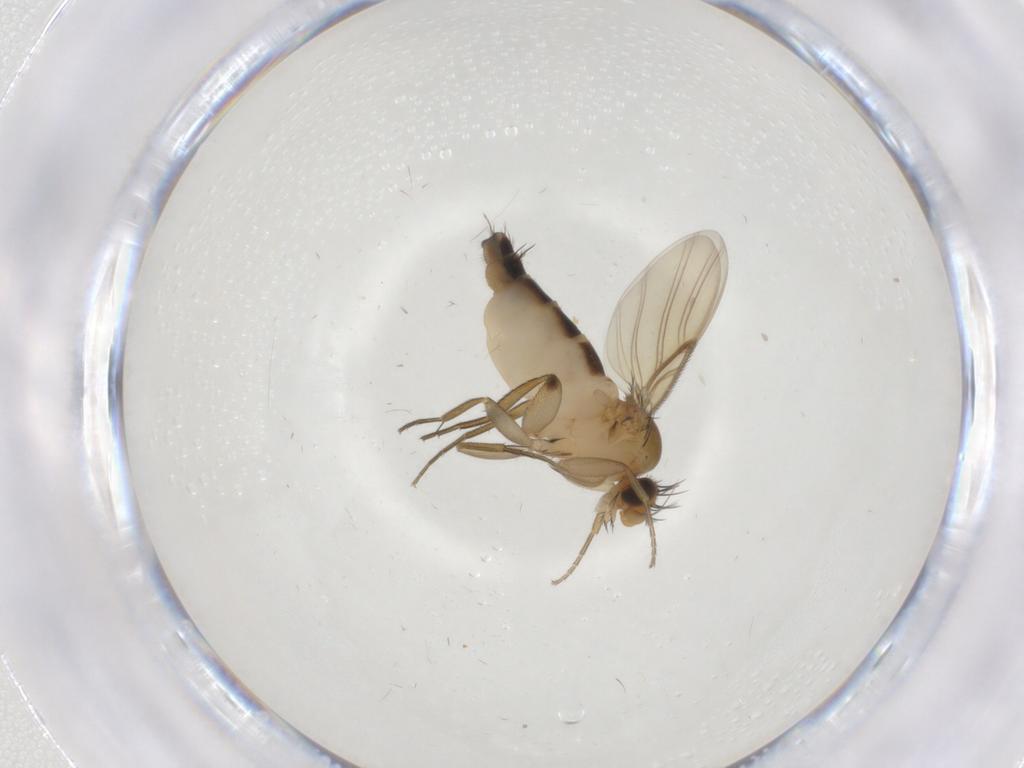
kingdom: Animalia
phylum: Arthropoda
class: Insecta
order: Diptera
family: Phoridae
